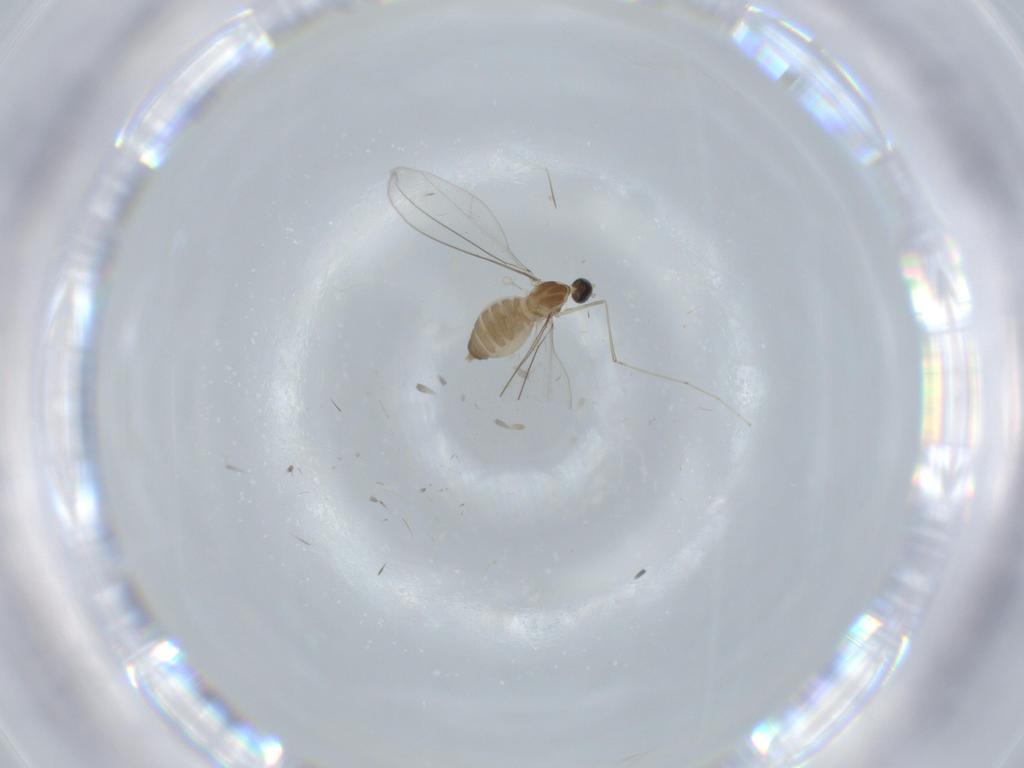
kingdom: Animalia
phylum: Arthropoda
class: Insecta
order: Diptera
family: Cecidomyiidae
